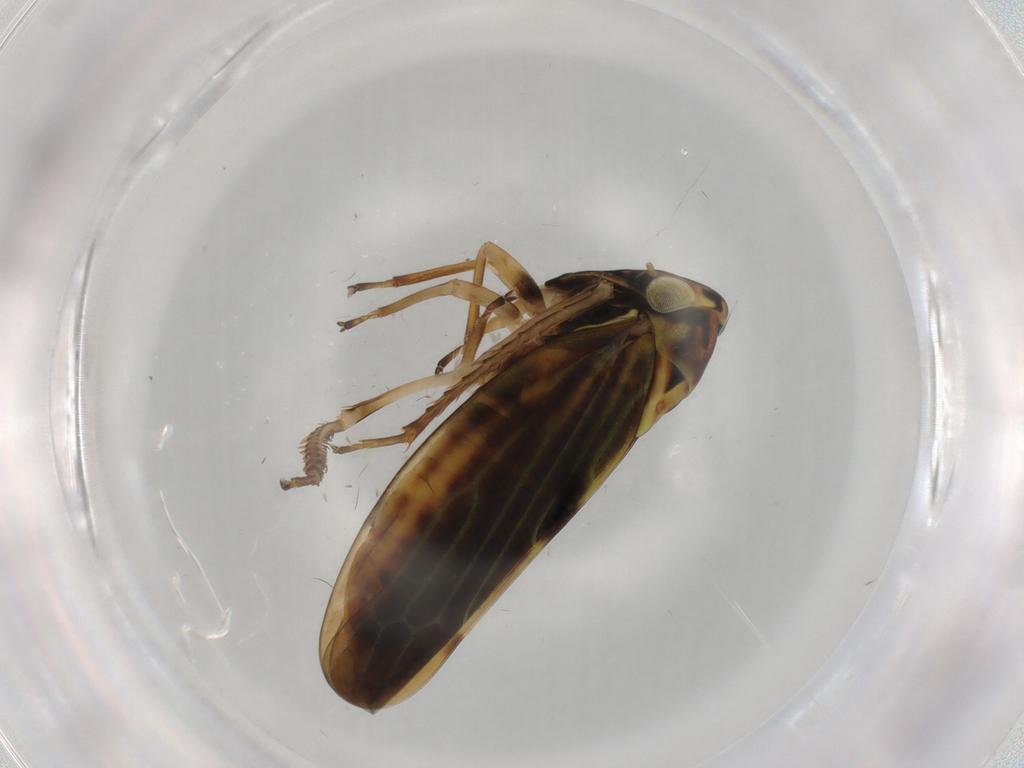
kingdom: Animalia
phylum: Arthropoda
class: Insecta
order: Hemiptera
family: Cicadellidae
